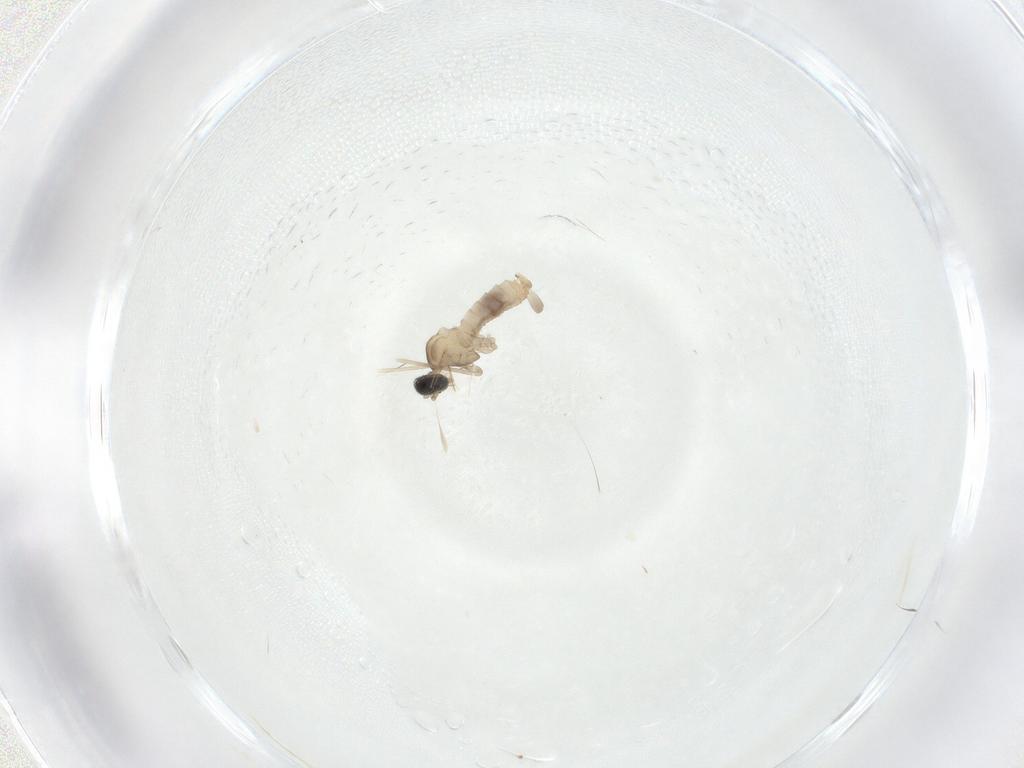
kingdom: Animalia
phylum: Arthropoda
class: Insecta
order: Diptera
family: Cecidomyiidae
